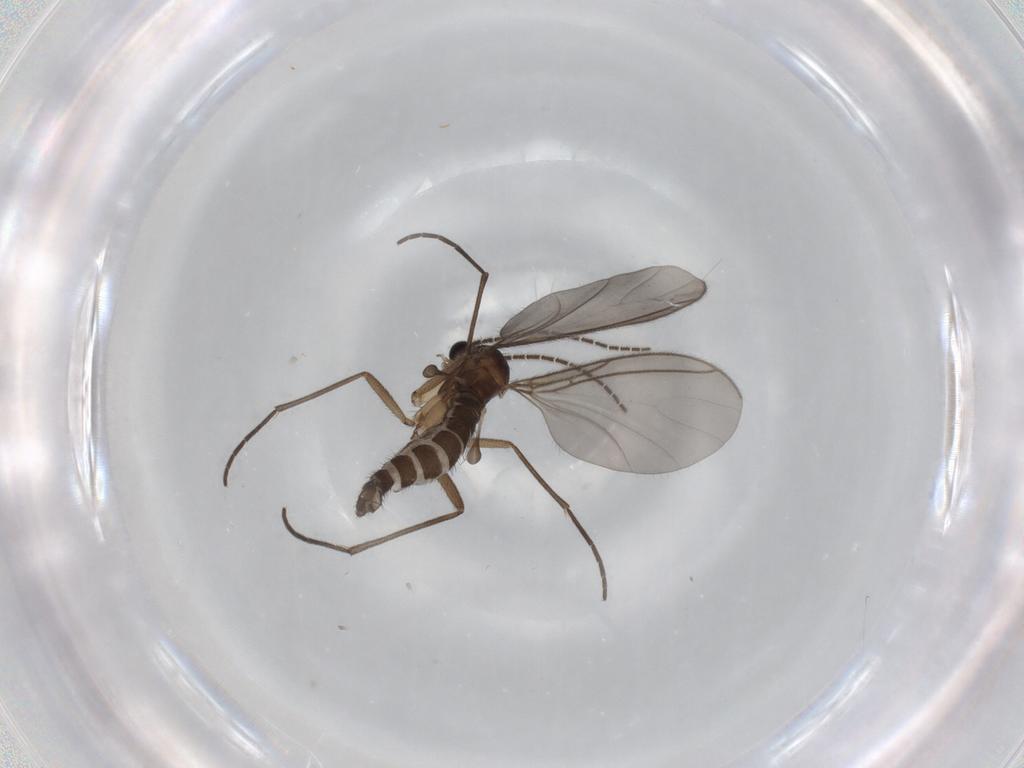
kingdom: Animalia
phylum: Arthropoda
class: Insecta
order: Diptera
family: Sciaridae
